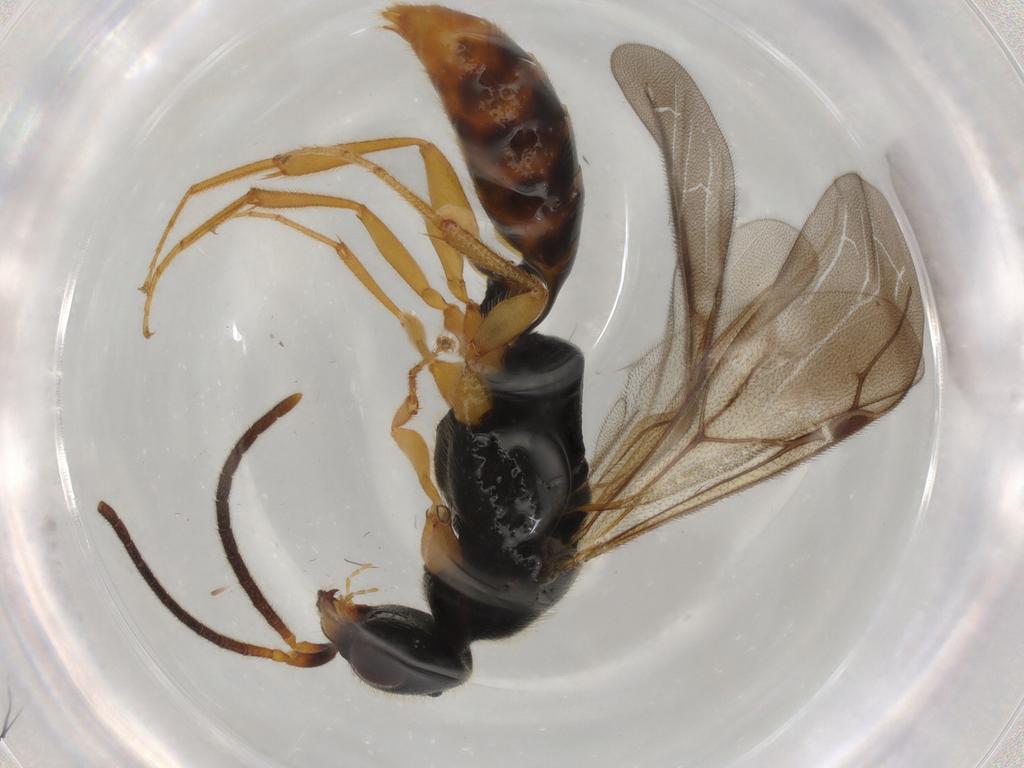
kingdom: Animalia
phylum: Arthropoda
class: Insecta
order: Hymenoptera
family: Bethylidae
